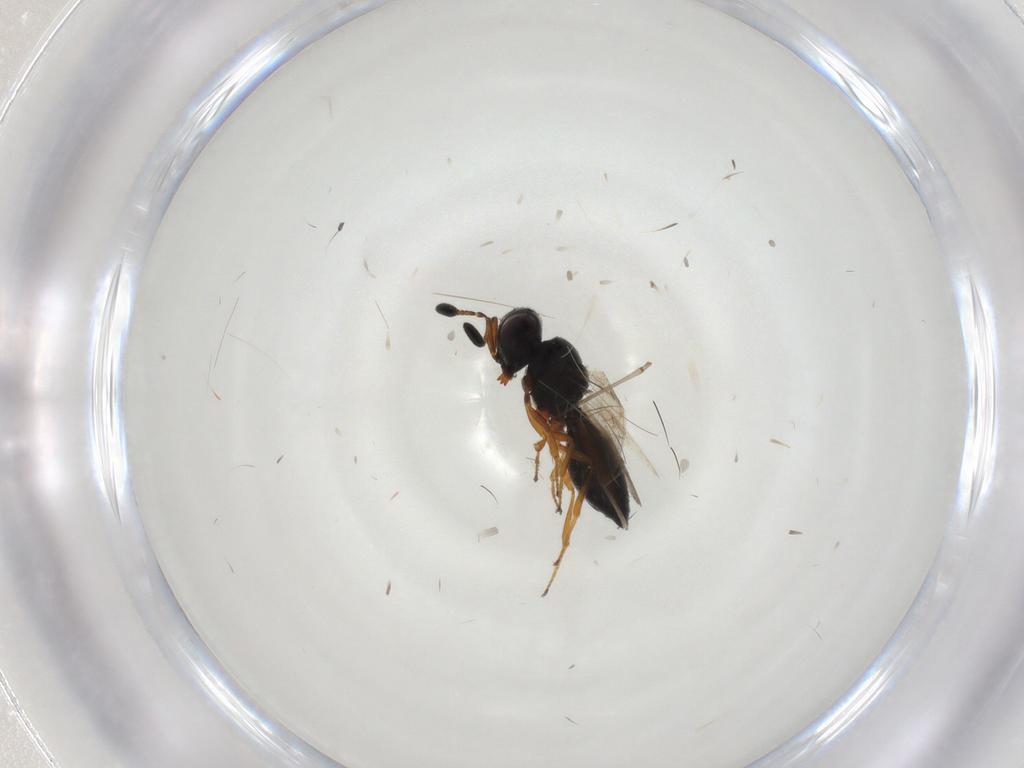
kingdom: Animalia
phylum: Arthropoda
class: Insecta
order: Hymenoptera
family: Scelionidae
